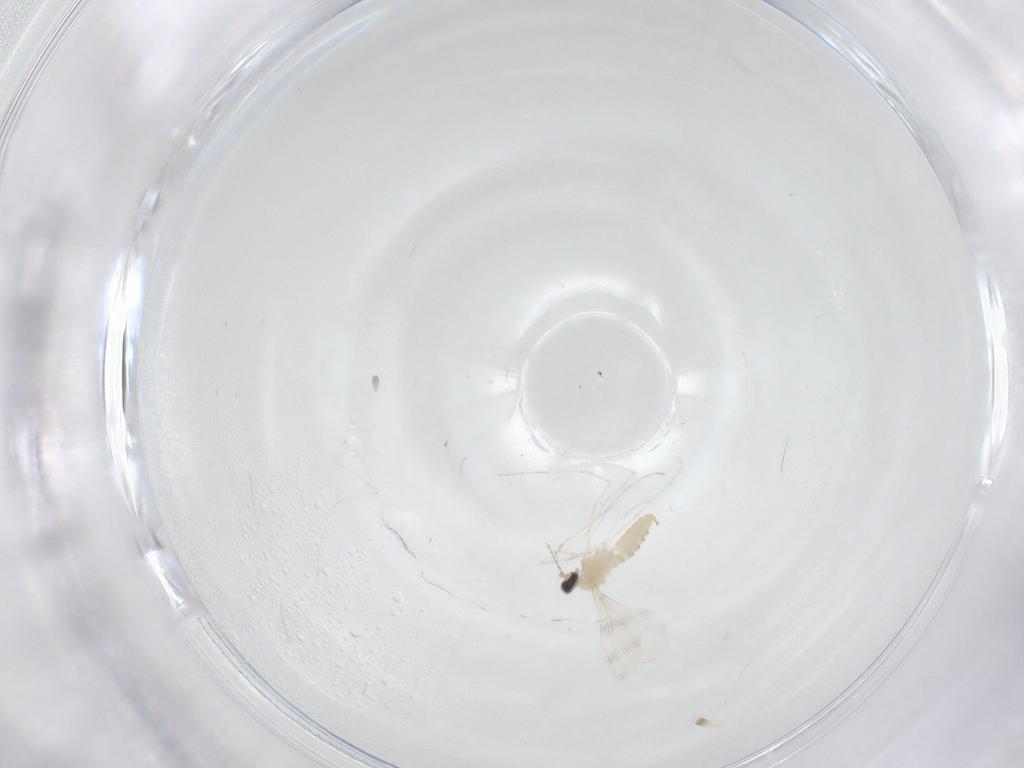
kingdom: Animalia
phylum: Arthropoda
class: Insecta
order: Diptera
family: Cecidomyiidae
